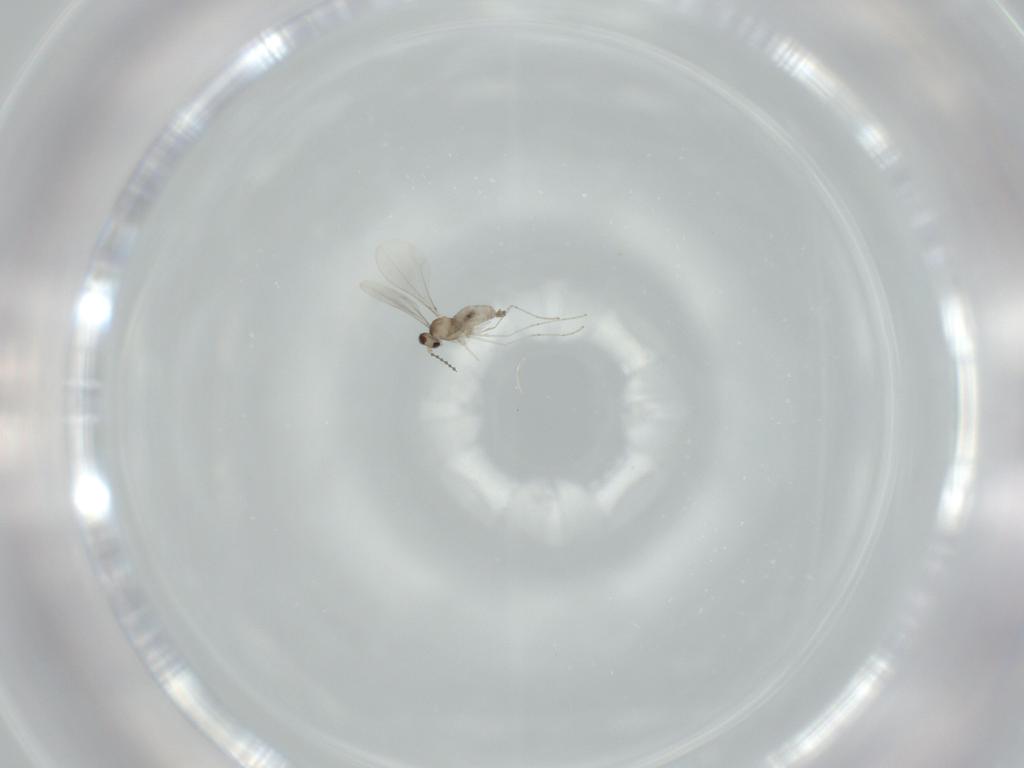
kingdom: Animalia
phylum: Arthropoda
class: Insecta
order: Diptera
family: Cecidomyiidae
